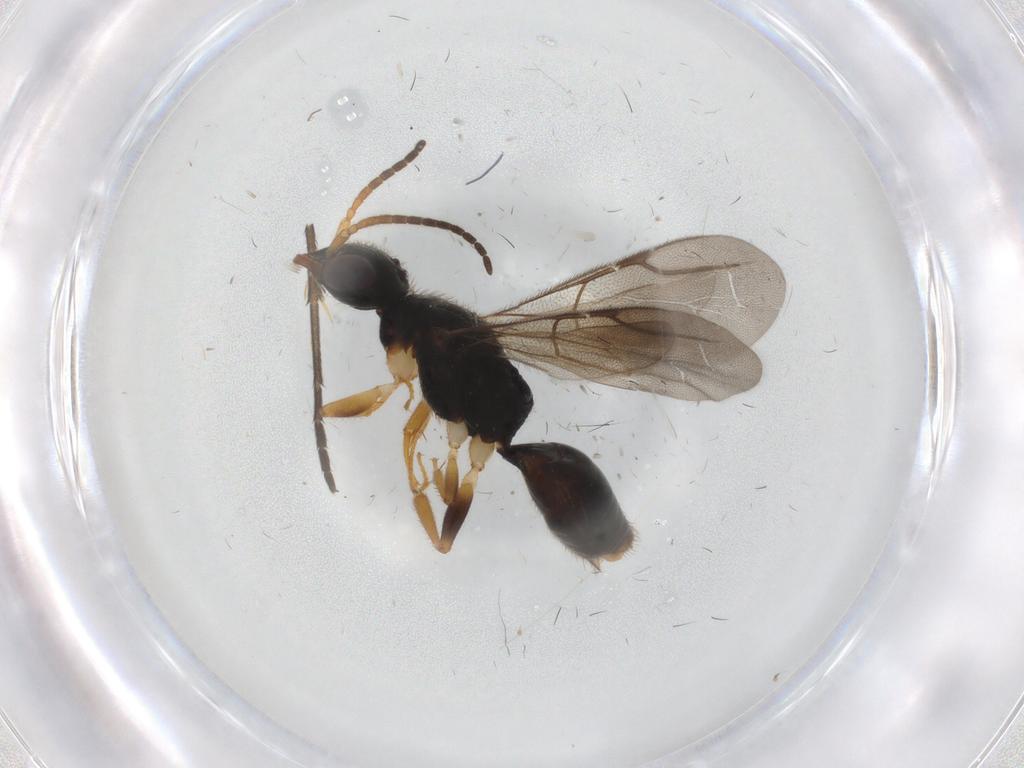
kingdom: Animalia
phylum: Arthropoda
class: Insecta
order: Hymenoptera
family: Bethylidae
